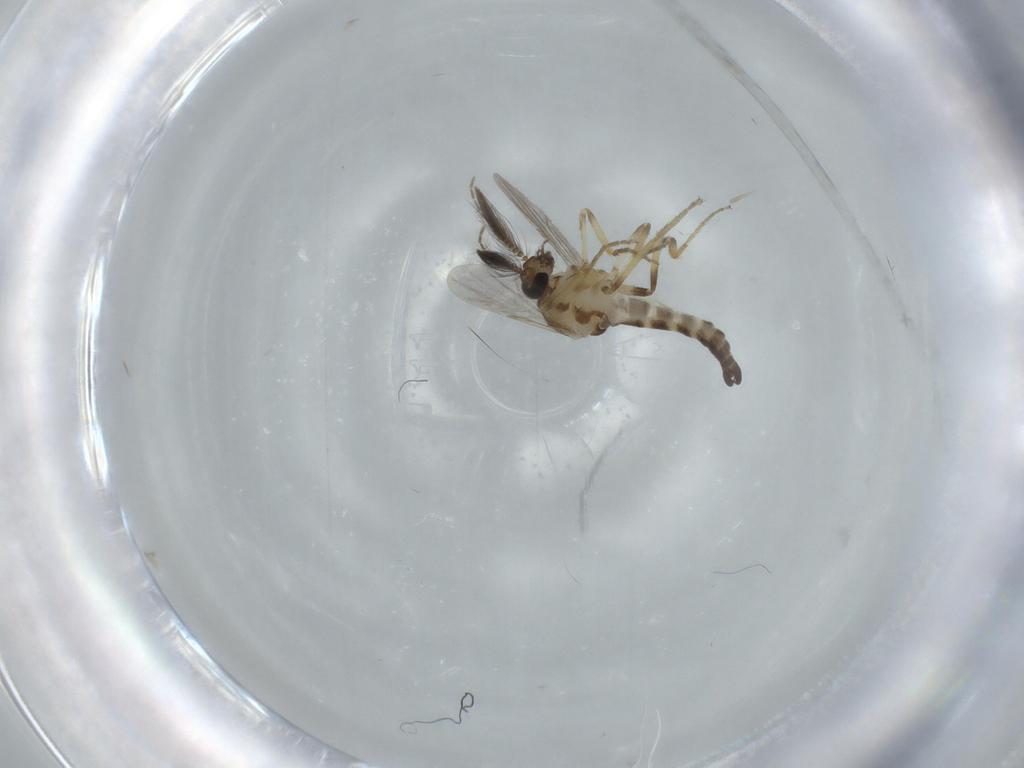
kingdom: Animalia
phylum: Arthropoda
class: Insecta
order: Diptera
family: Ceratopogonidae
